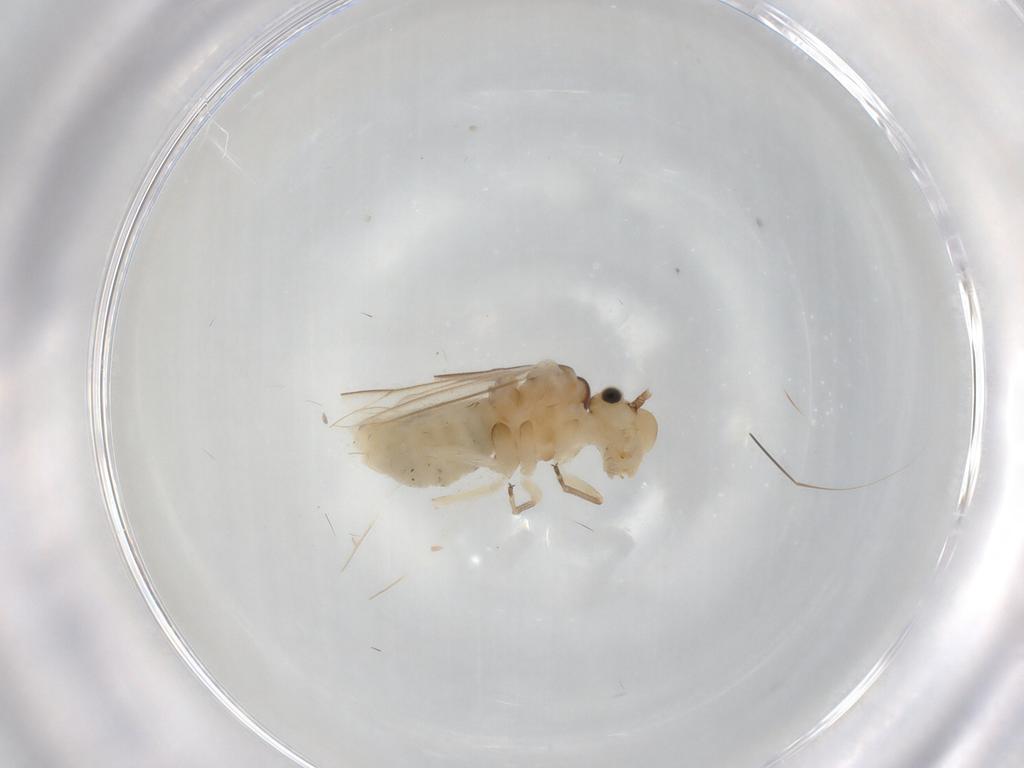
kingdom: Animalia
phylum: Arthropoda
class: Insecta
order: Psocodea
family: Caeciliusidae
